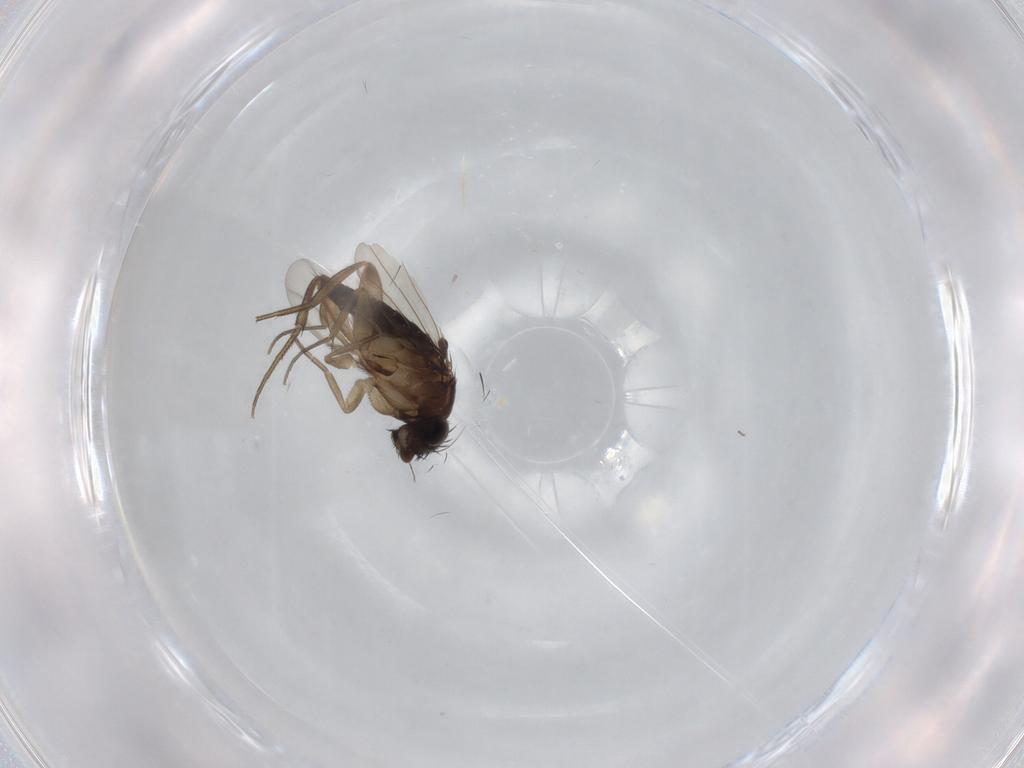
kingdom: Animalia
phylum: Arthropoda
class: Insecta
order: Diptera
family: Phoridae
